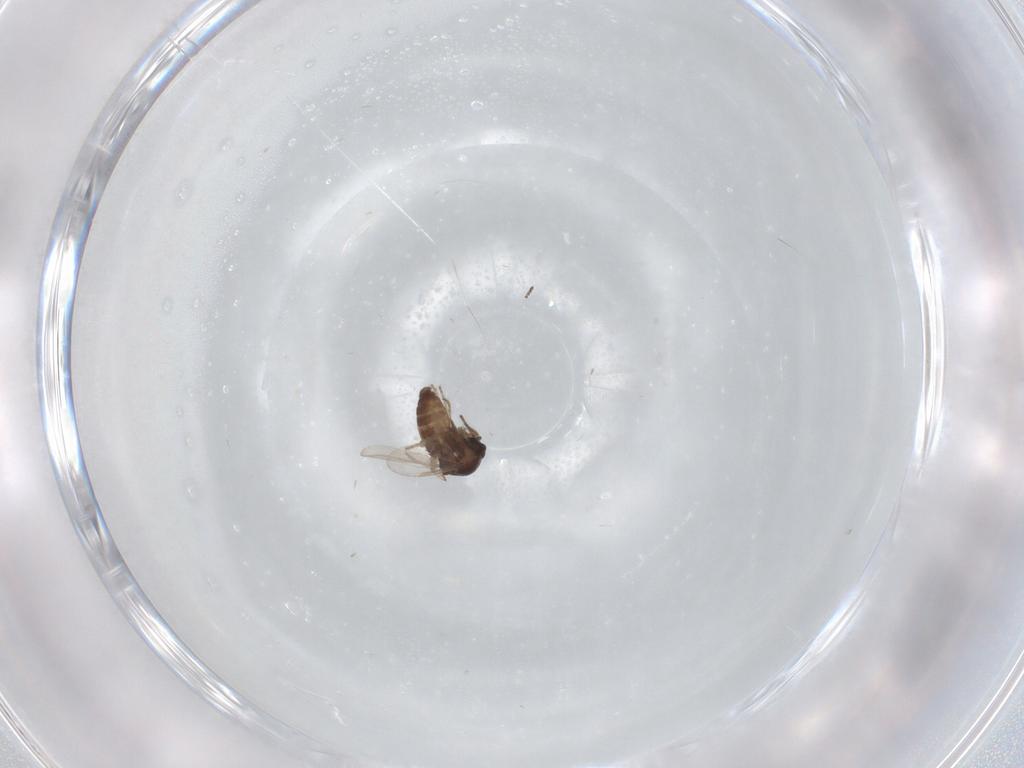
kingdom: Animalia
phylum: Arthropoda
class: Insecta
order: Diptera
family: Ceratopogonidae
